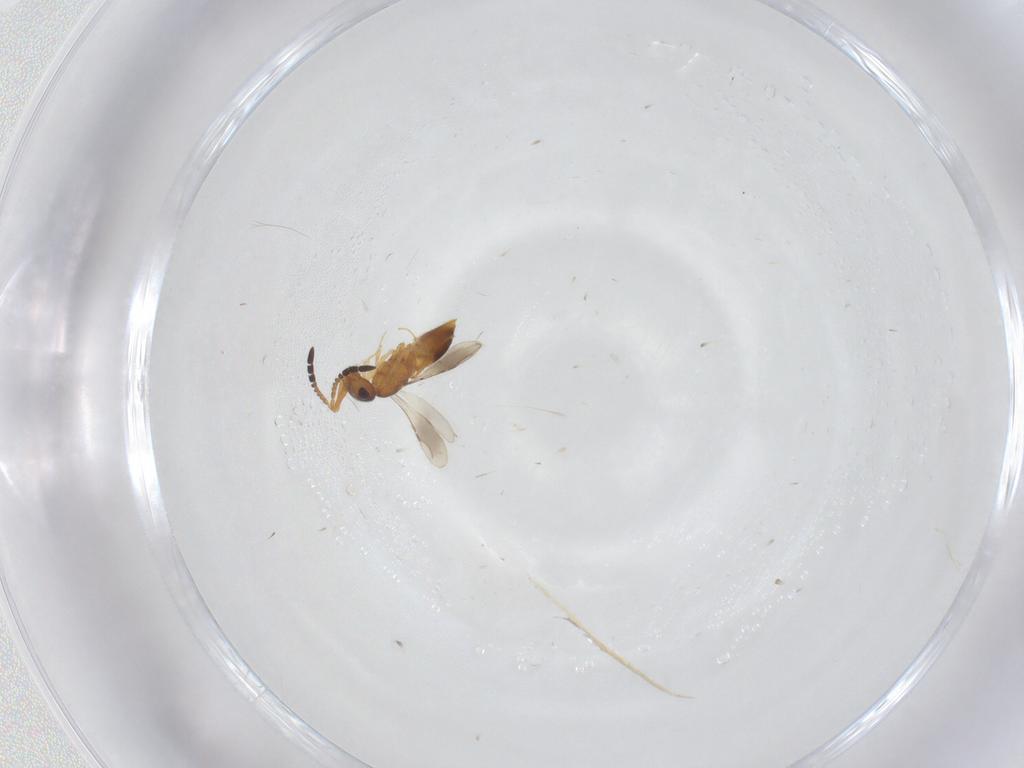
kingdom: Animalia
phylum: Arthropoda
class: Insecta
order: Hymenoptera
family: Ceraphronidae
